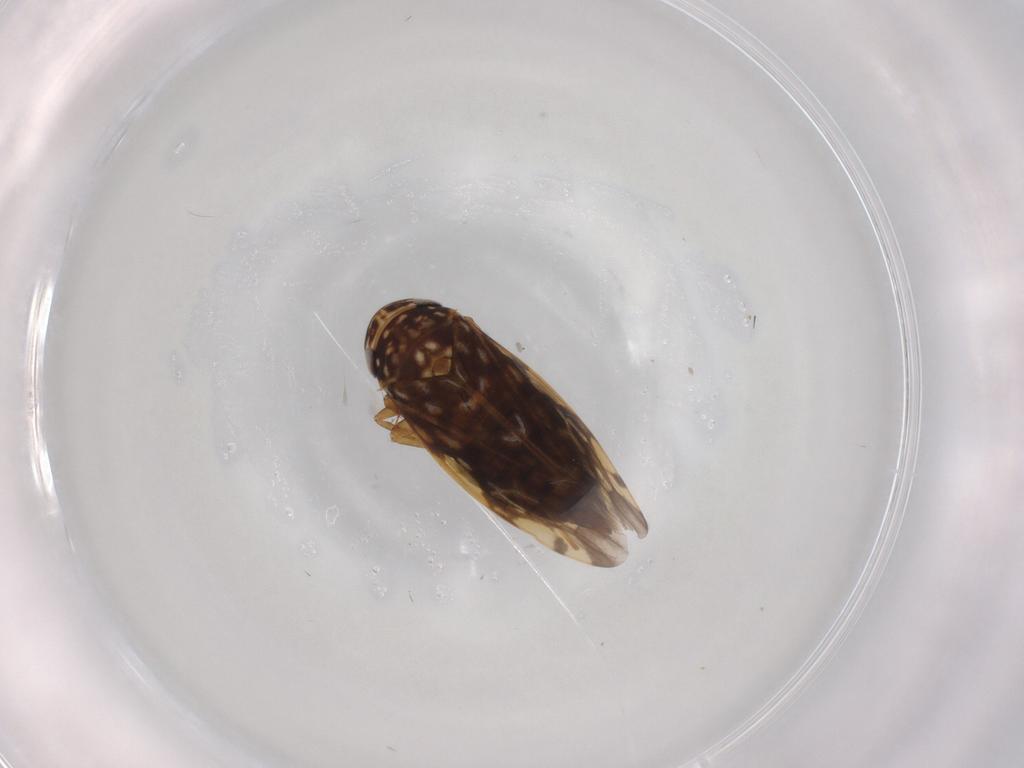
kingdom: Animalia
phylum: Arthropoda
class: Insecta
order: Hemiptera
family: Cicadellidae
